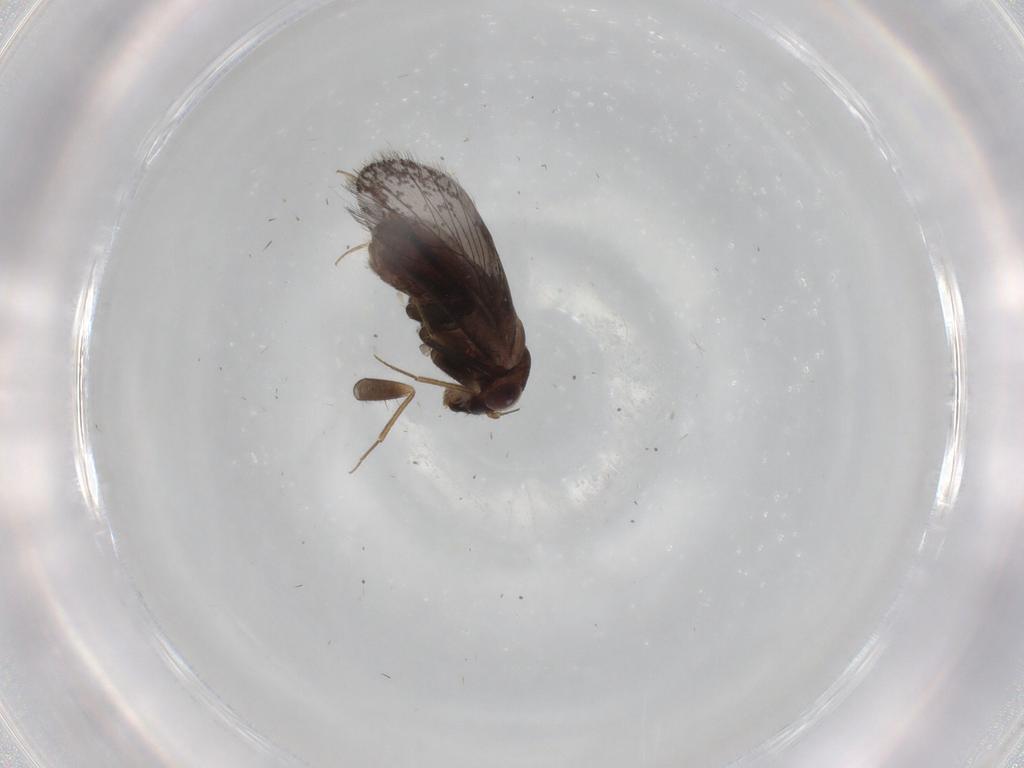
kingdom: Animalia
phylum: Arthropoda
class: Insecta
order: Psocodea
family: Lepidopsocidae
